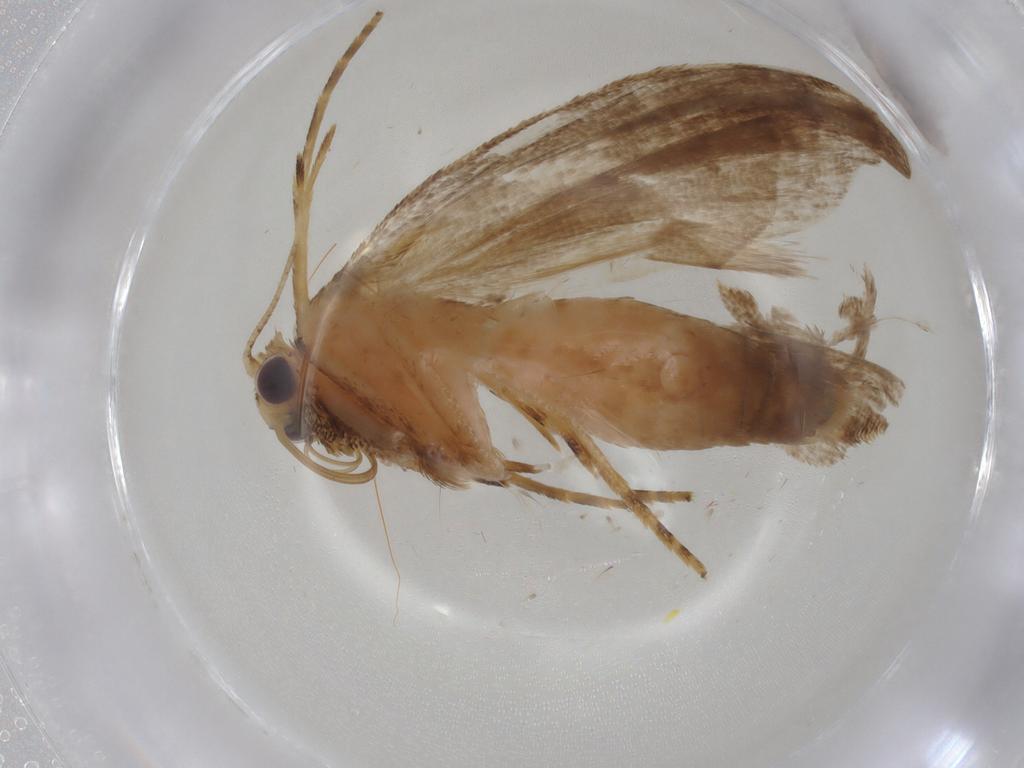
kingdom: Animalia
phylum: Arthropoda
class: Insecta
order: Lepidoptera
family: Erebidae
